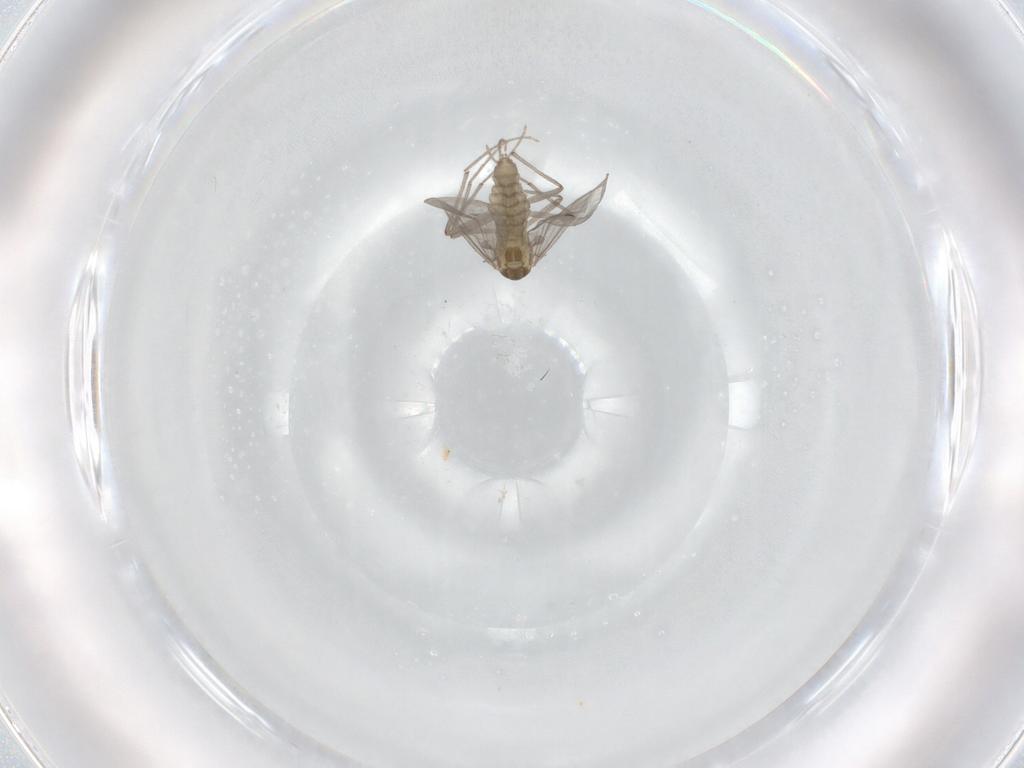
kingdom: Animalia
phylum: Arthropoda
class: Insecta
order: Diptera
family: Chironomidae
